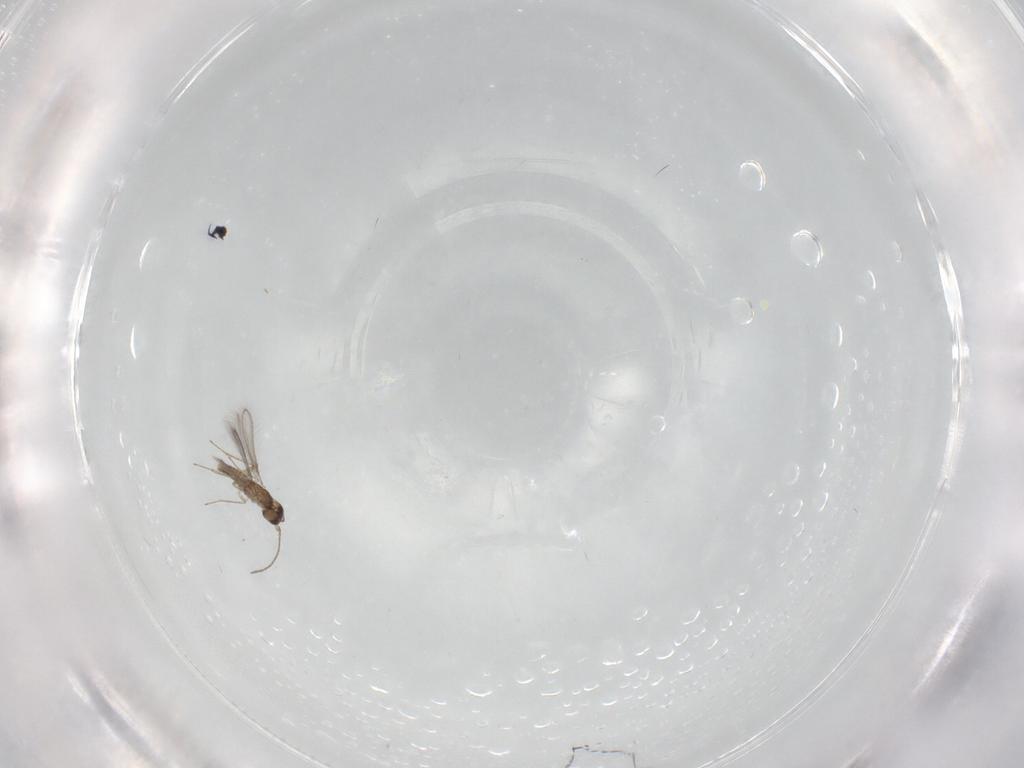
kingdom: Animalia
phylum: Arthropoda
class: Insecta
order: Hymenoptera
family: Mymaridae
